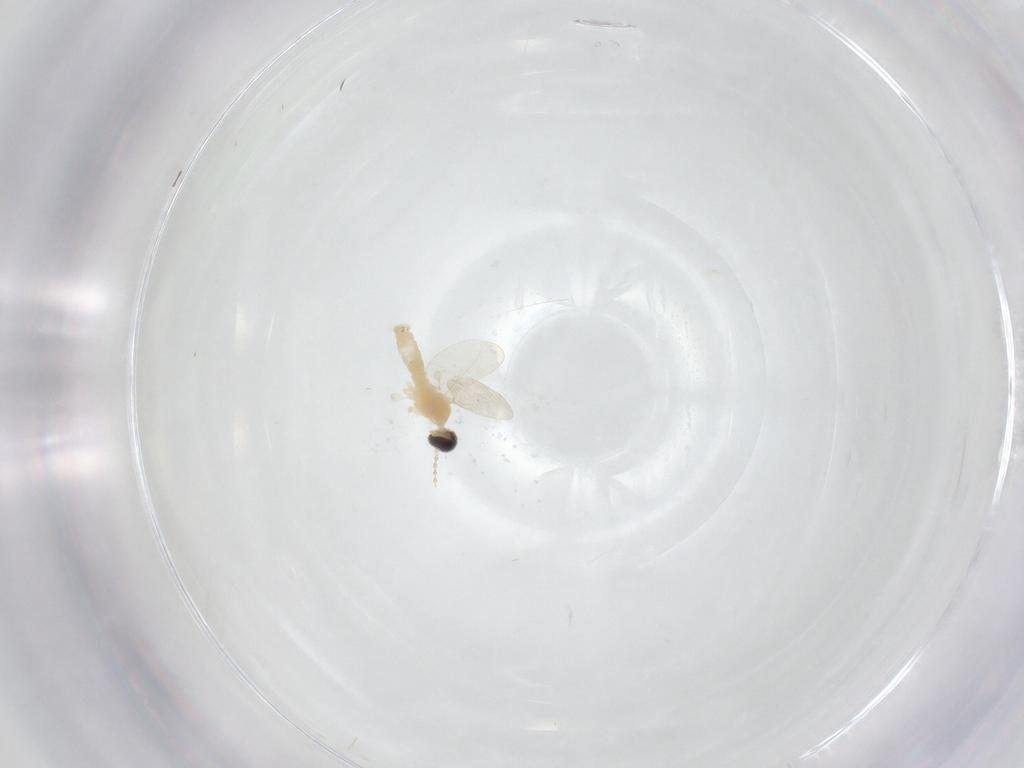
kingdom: Animalia
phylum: Arthropoda
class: Insecta
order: Diptera
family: Cecidomyiidae
